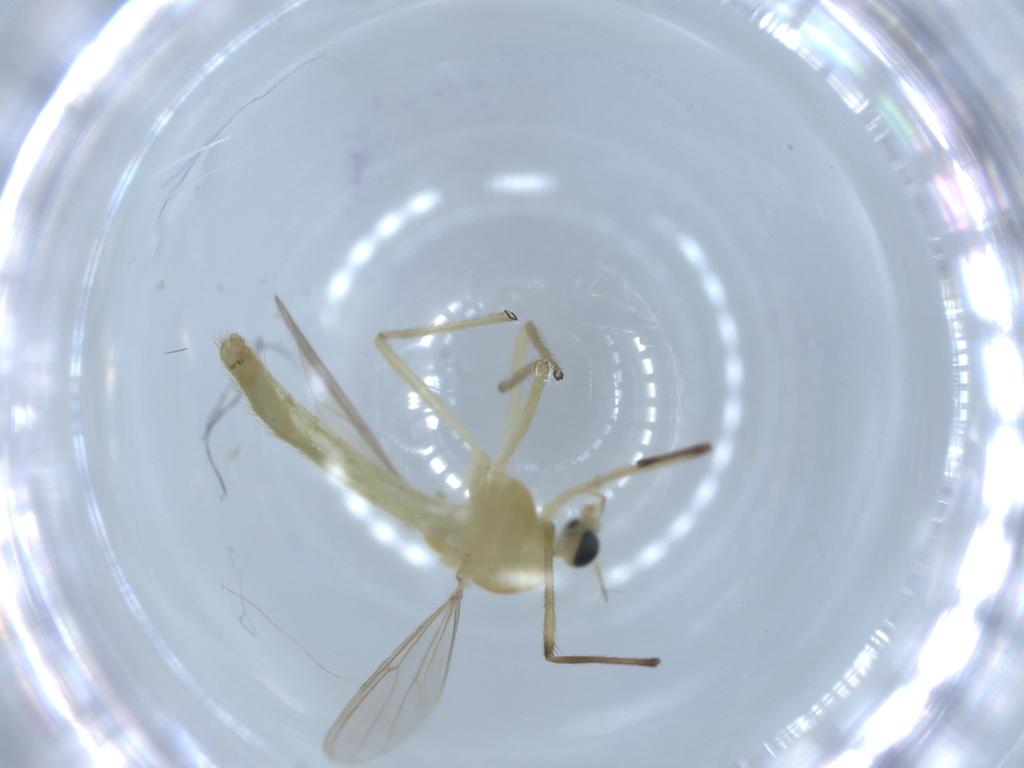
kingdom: Animalia
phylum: Arthropoda
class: Insecta
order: Diptera
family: Chironomidae
